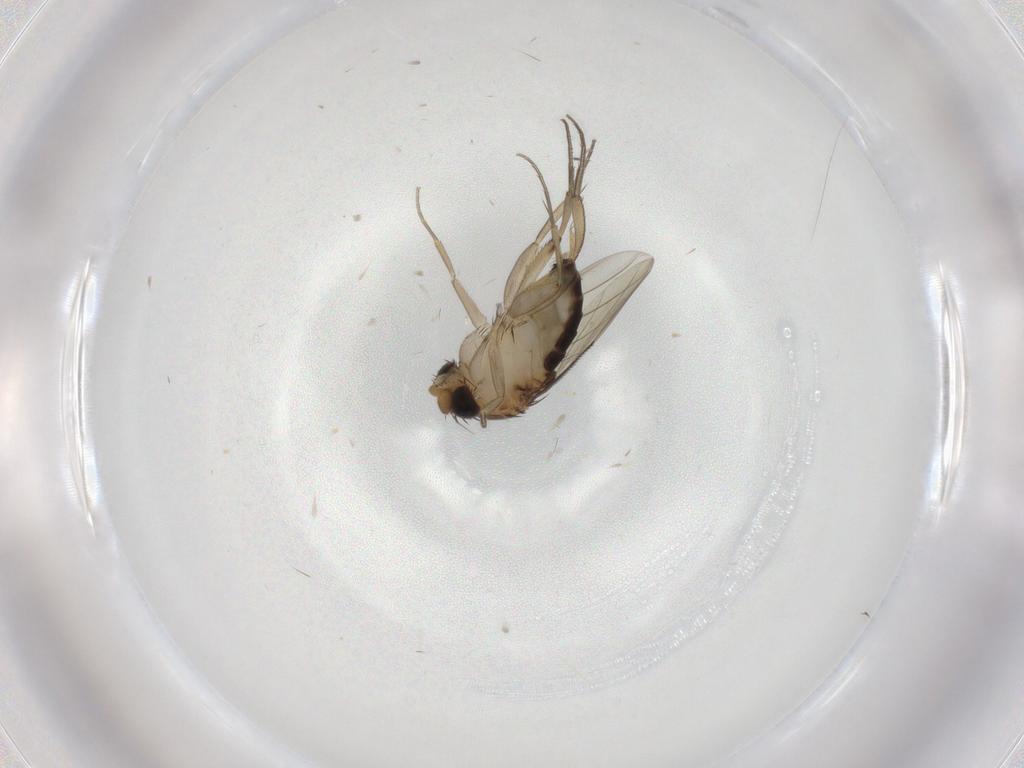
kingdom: Animalia
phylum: Arthropoda
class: Insecta
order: Diptera
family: Phoridae
